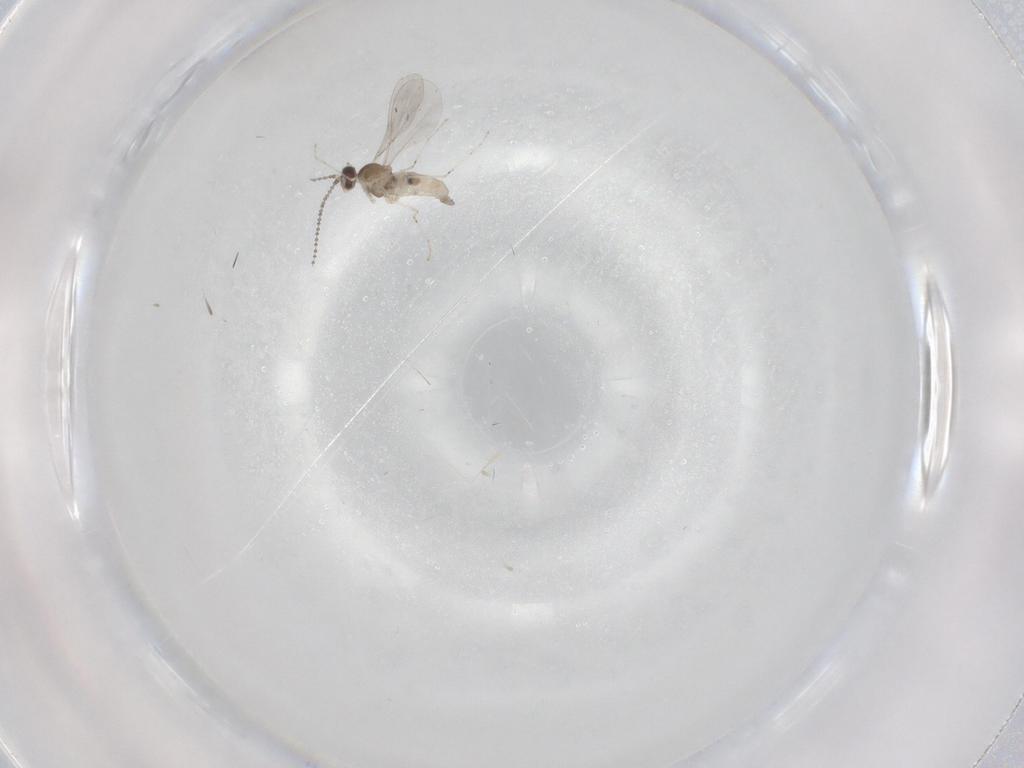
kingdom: Animalia
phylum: Arthropoda
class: Insecta
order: Diptera
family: Cecidomyiidae
